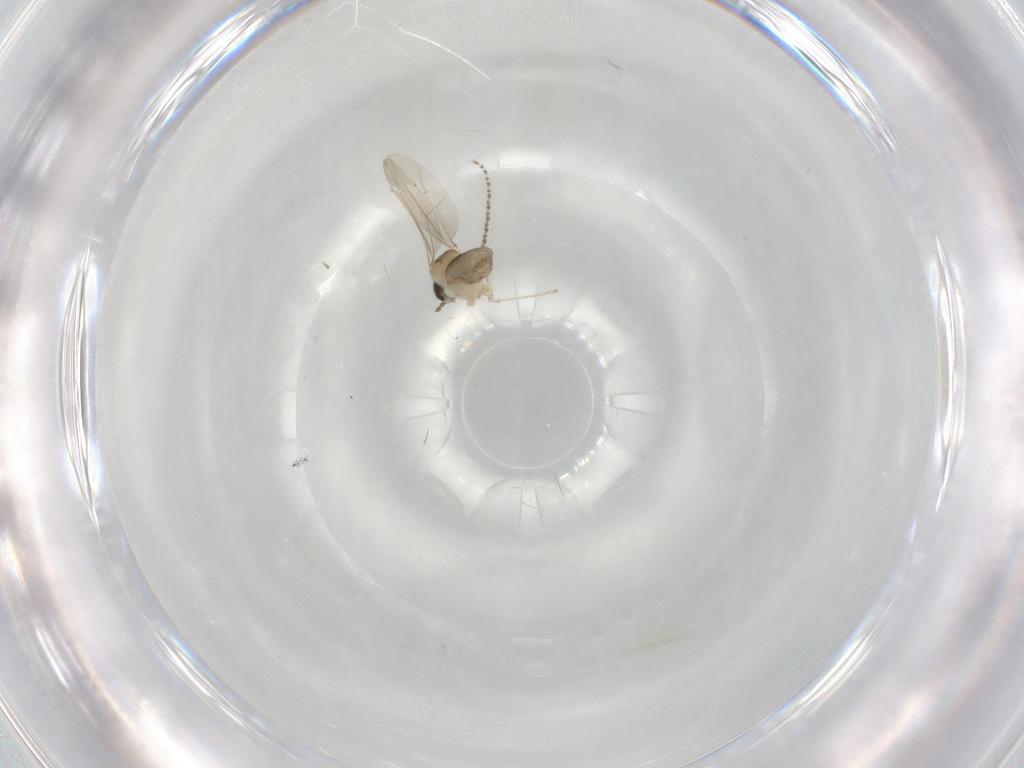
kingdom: Animalia
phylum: Arthropoda
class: Insecta
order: Diptera
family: Cecidomyiidae
